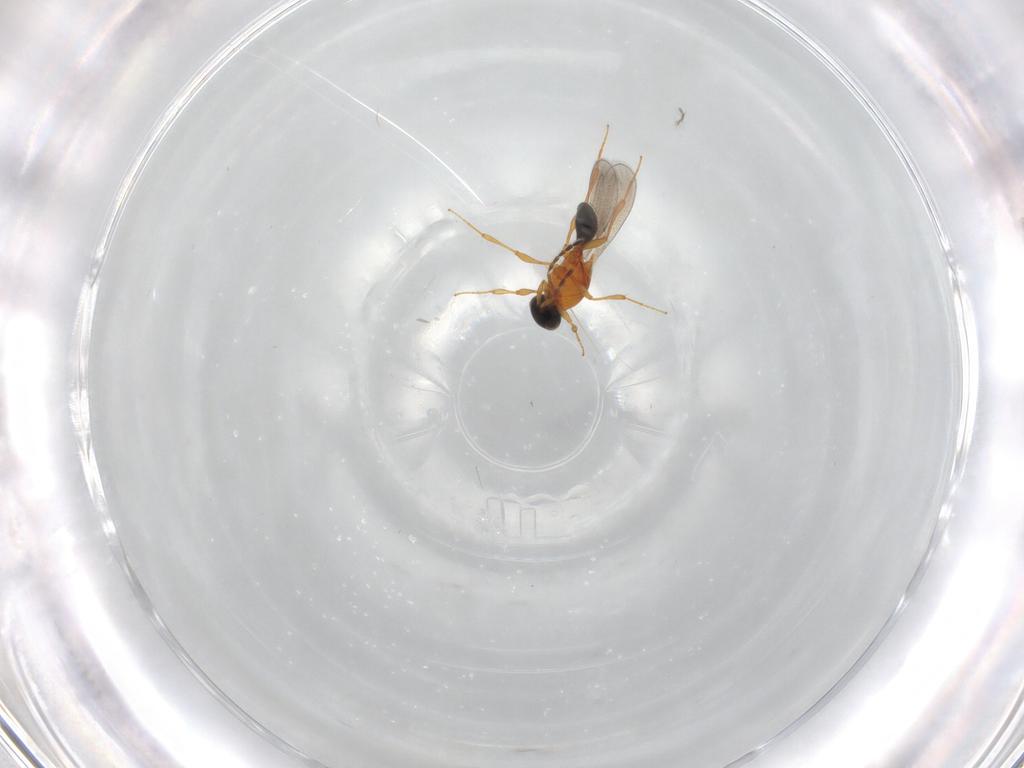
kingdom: Animalia
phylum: Arthropoda
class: Insecta
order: Hymenoptera
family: Platygastridae
